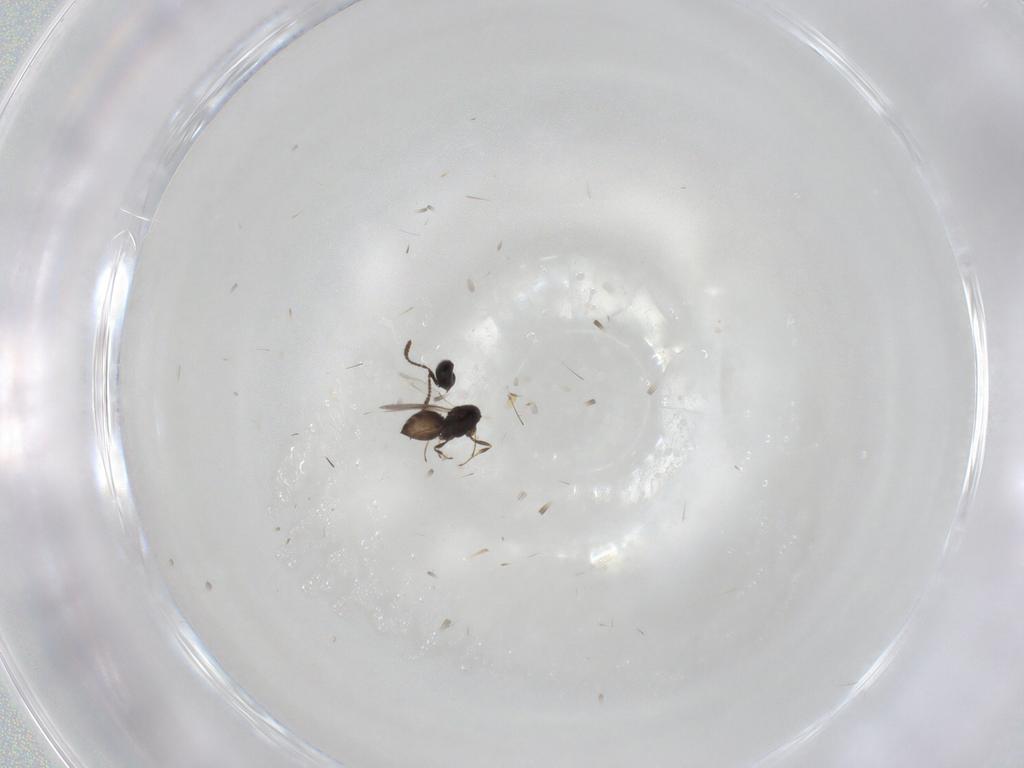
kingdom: Animalia
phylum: Arthropoda
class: Insecta
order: Hymenoptera
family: Scelionidae
